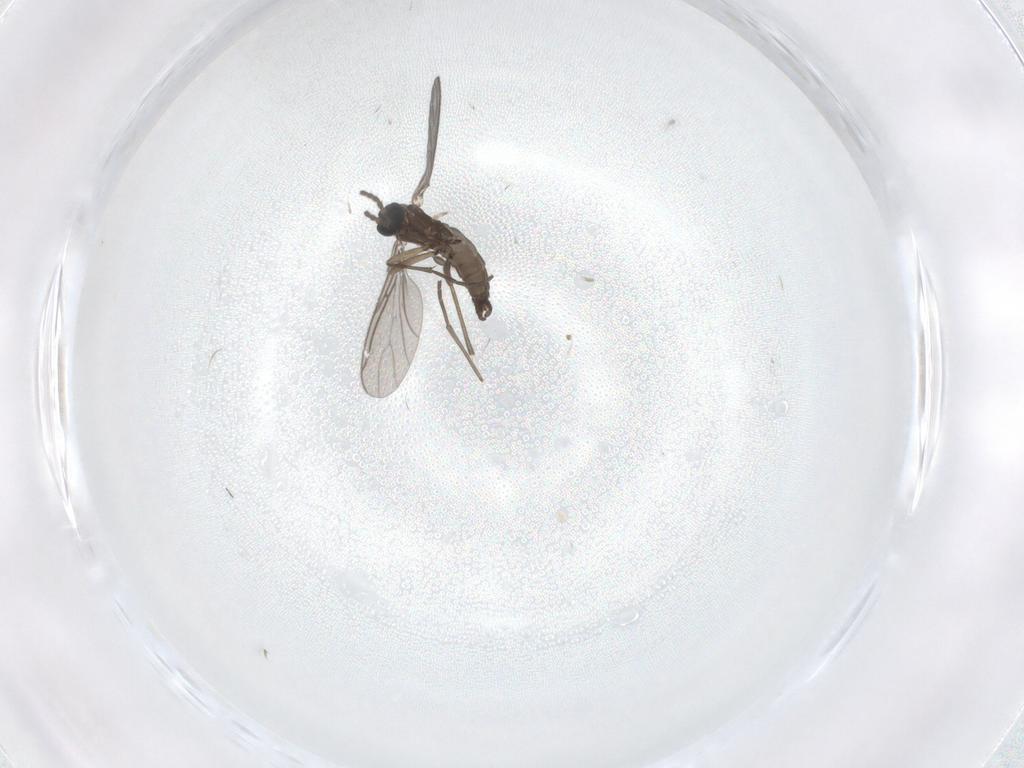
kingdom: Animalia
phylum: Arthropoda
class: Insecta
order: Diptera
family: Sciaridae
